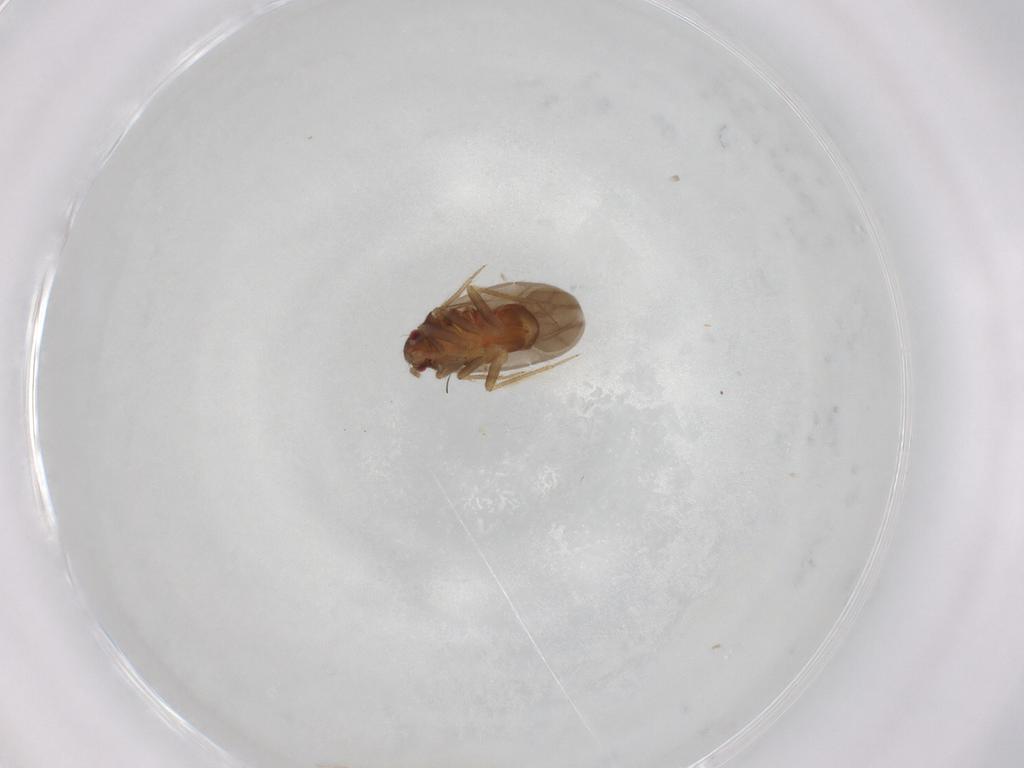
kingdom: Animalia
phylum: Arthropoda
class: Insecta
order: Hemiptera
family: Ceratocombidae
